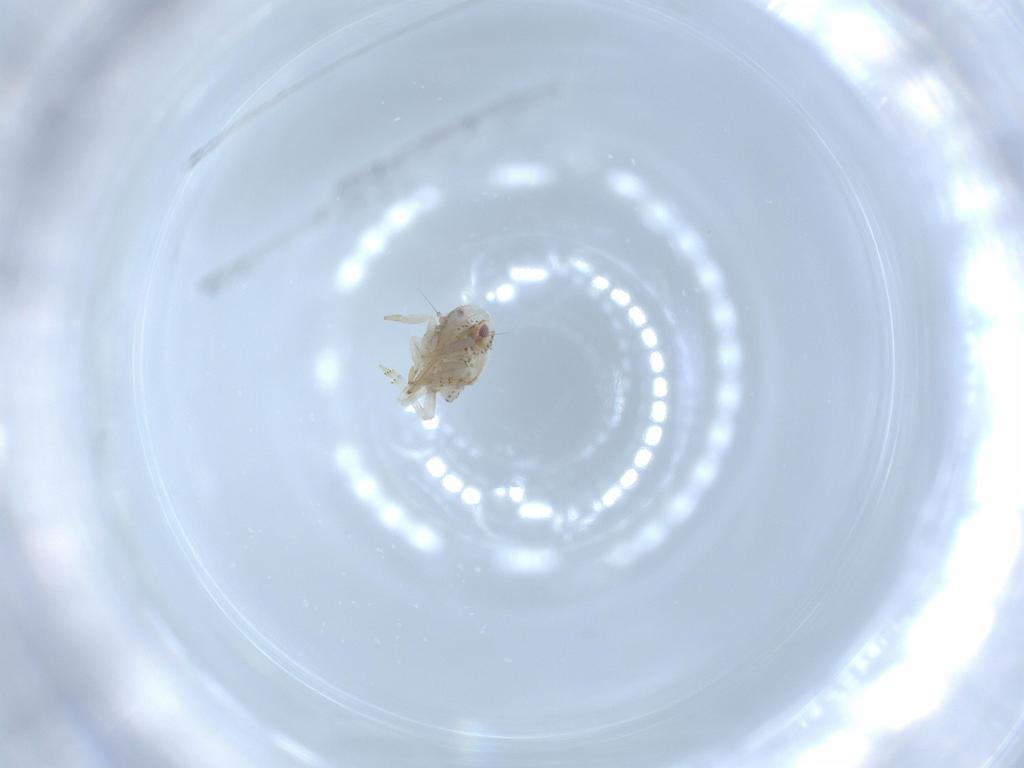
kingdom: Animalia
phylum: Arthropoda
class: Insecta
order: Hemiptera
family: Acanaloniidae
